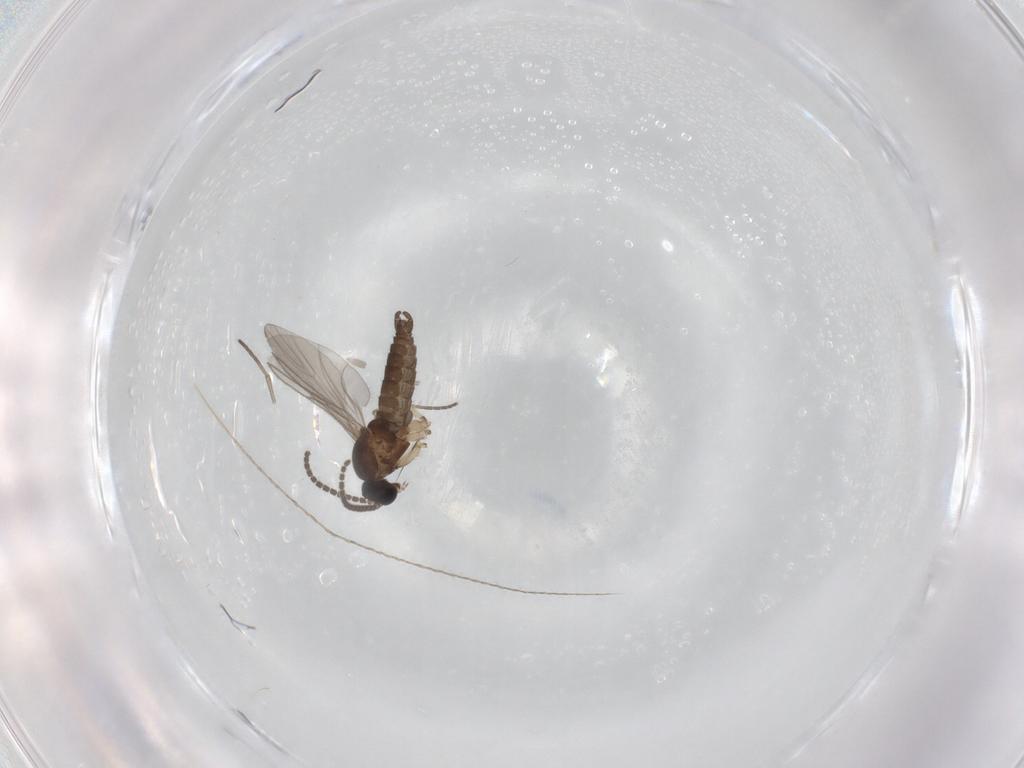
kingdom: Animalia
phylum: Arthropoda
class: Insecta
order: Diptera
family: Sciaridae
